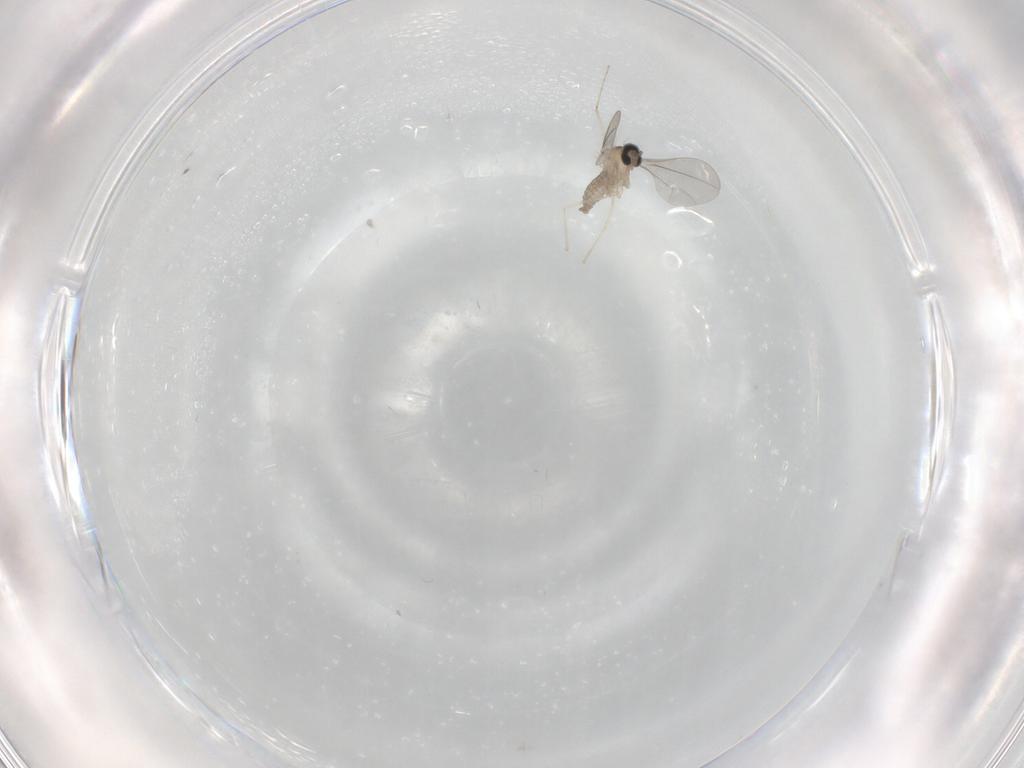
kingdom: Animalia
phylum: Arthropoda
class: Insecta
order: Diptera
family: Cecidomyiidae
